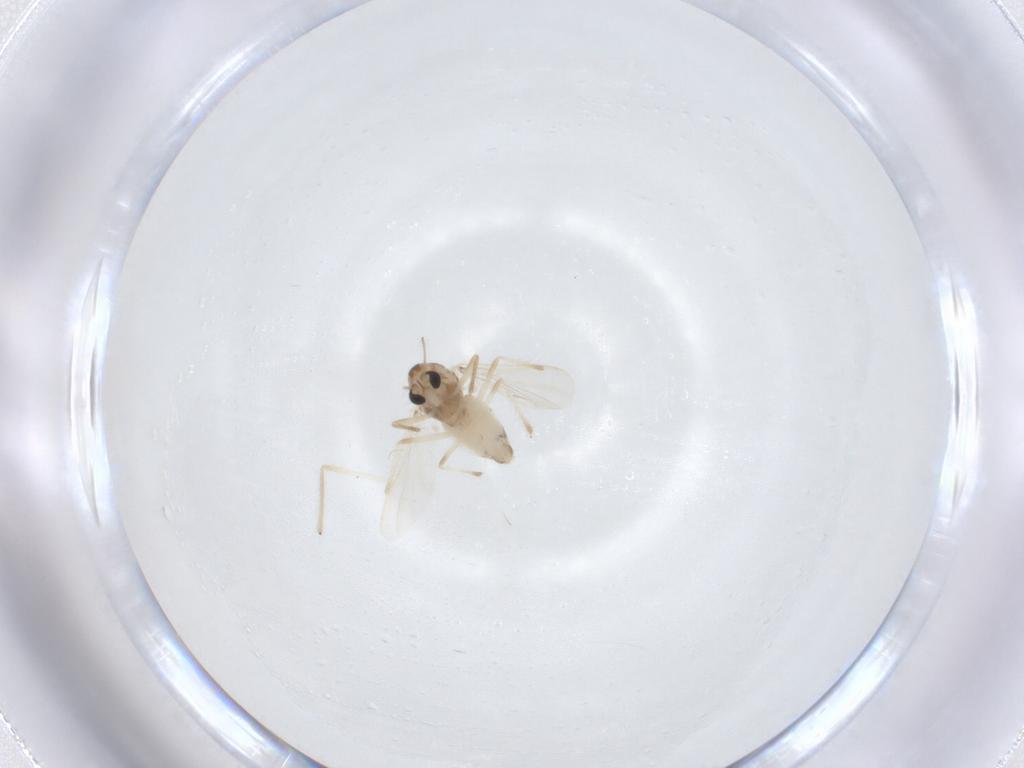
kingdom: Animalia
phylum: Arthropoda
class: Insecta
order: Diptera
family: Chironomidae
